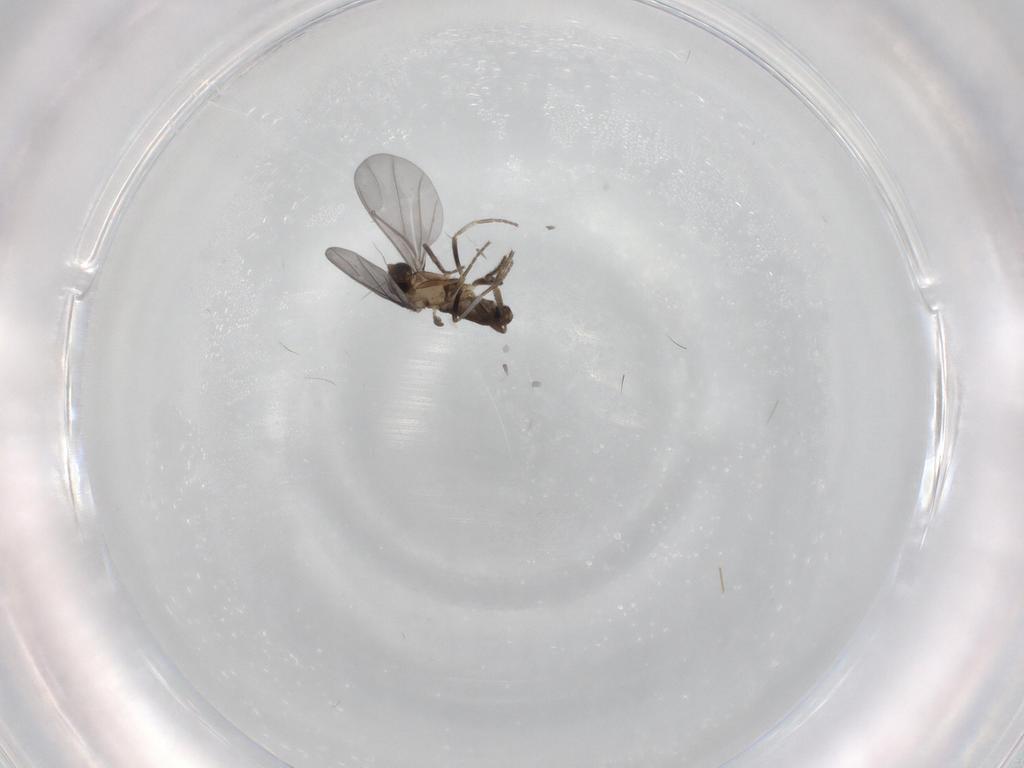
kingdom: Animalia
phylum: Arthropoda
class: Insecta
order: Diptera
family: Phoridae
